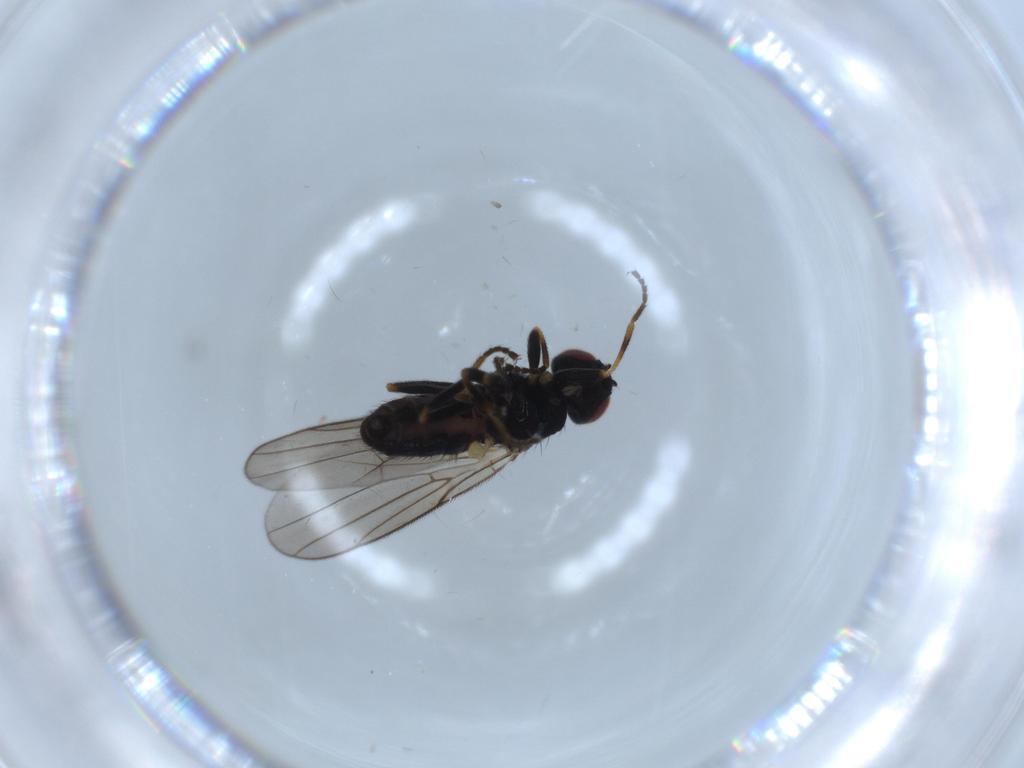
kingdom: Animalia
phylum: Arthropoda
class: Insecta
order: Diptera
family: Chloropidae
